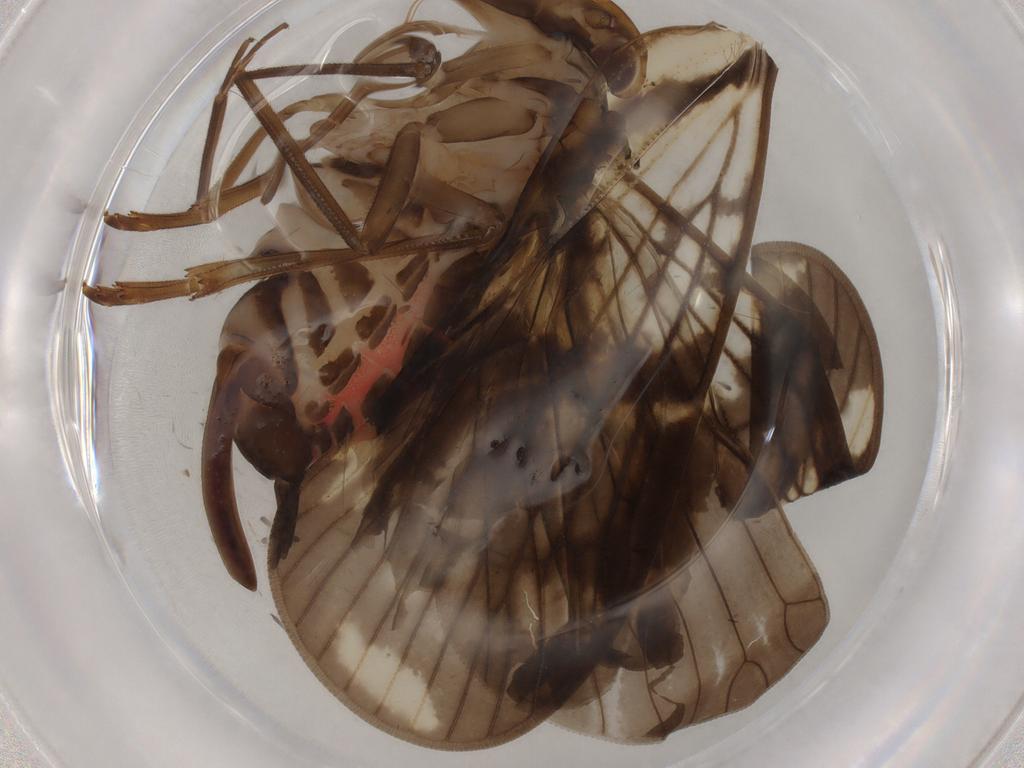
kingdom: Animalia
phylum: Arthropoda
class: Insecta
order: Hemiptera
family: Cixiidae
